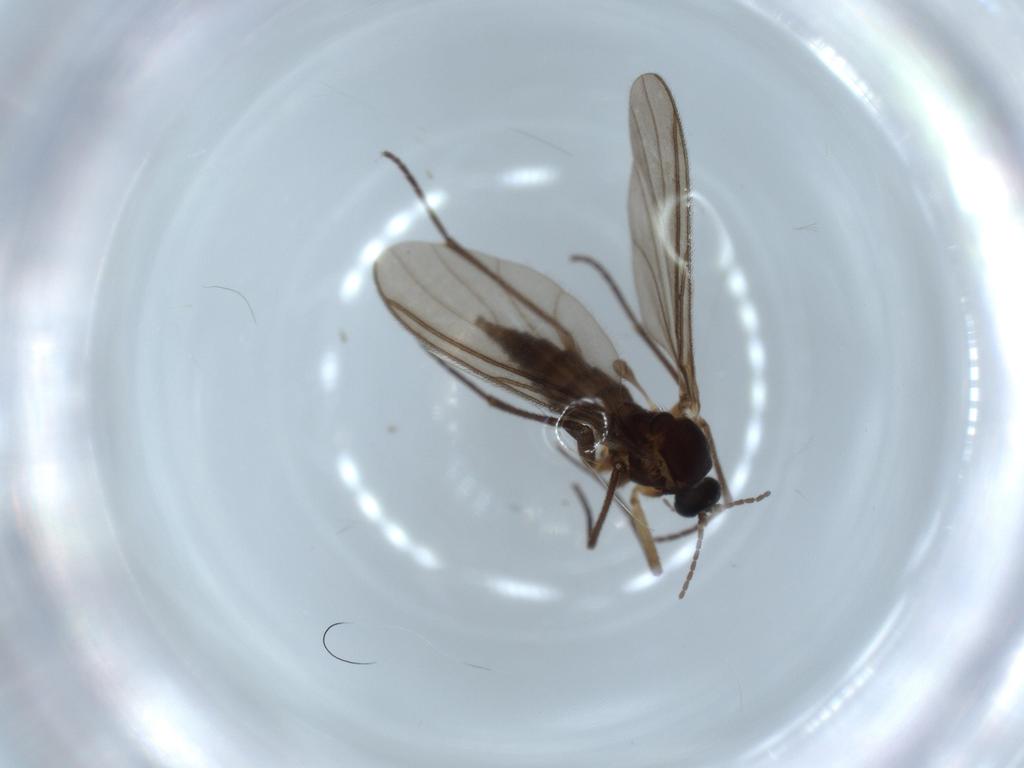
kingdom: Animalia
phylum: Arthropoda
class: Insecta
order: Diptera
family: Sciaridae
